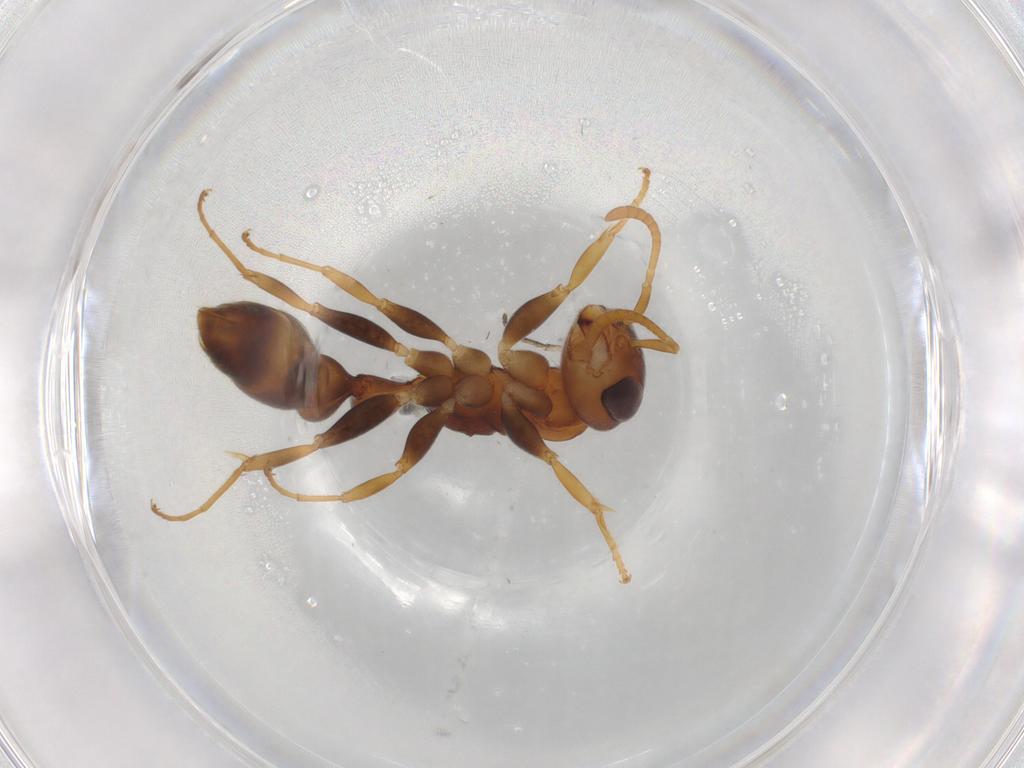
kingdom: Animalia
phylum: Arthropoda
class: Insecta
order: Hymenoptera
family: Formicidae
